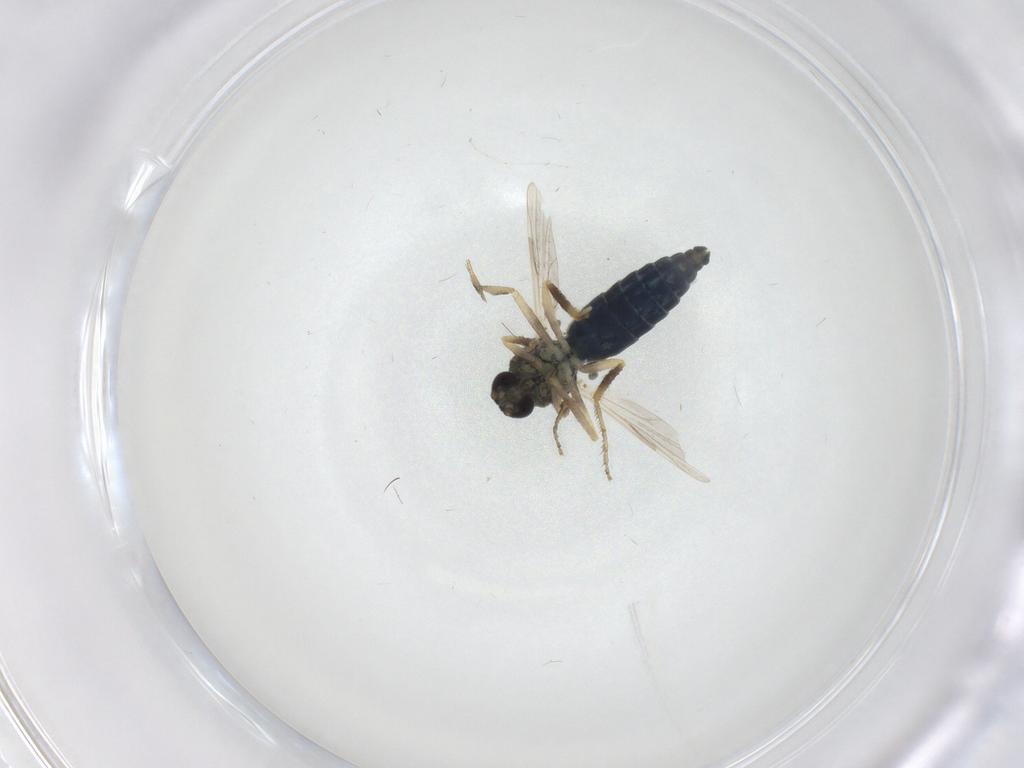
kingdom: Animalia
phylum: Arthropoda
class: Insecta
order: Diptera
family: Ceratopogonidae
